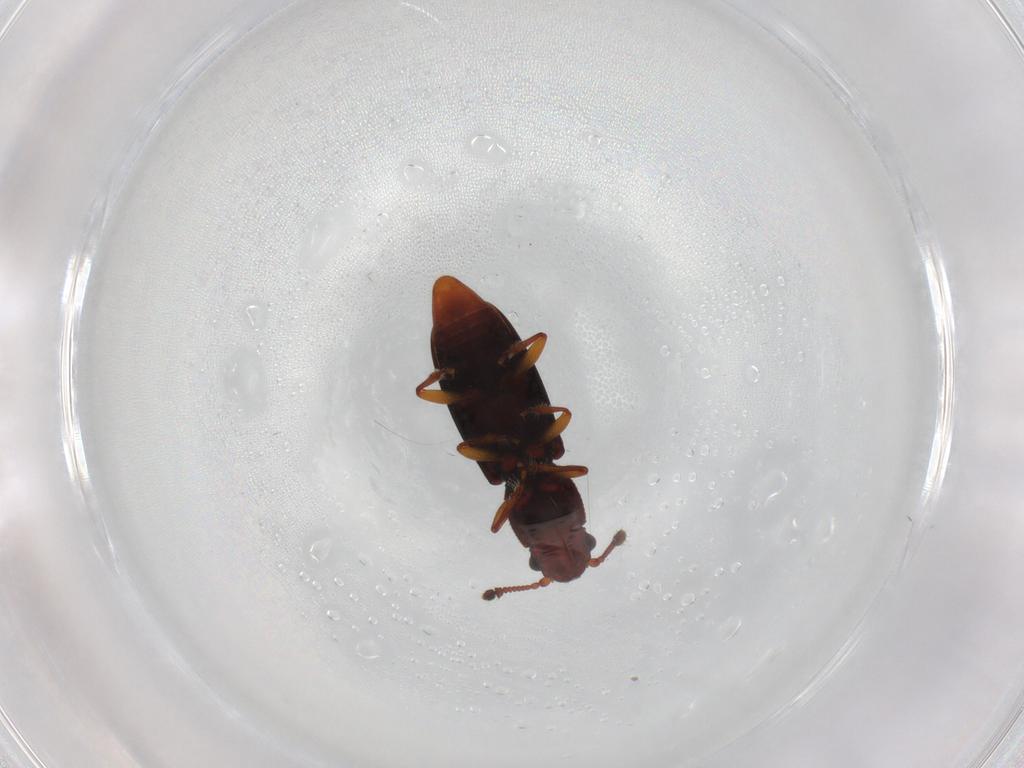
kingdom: Animalia
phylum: Arthropoda
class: Insecta
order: Coleoptera
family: Monotomidae
